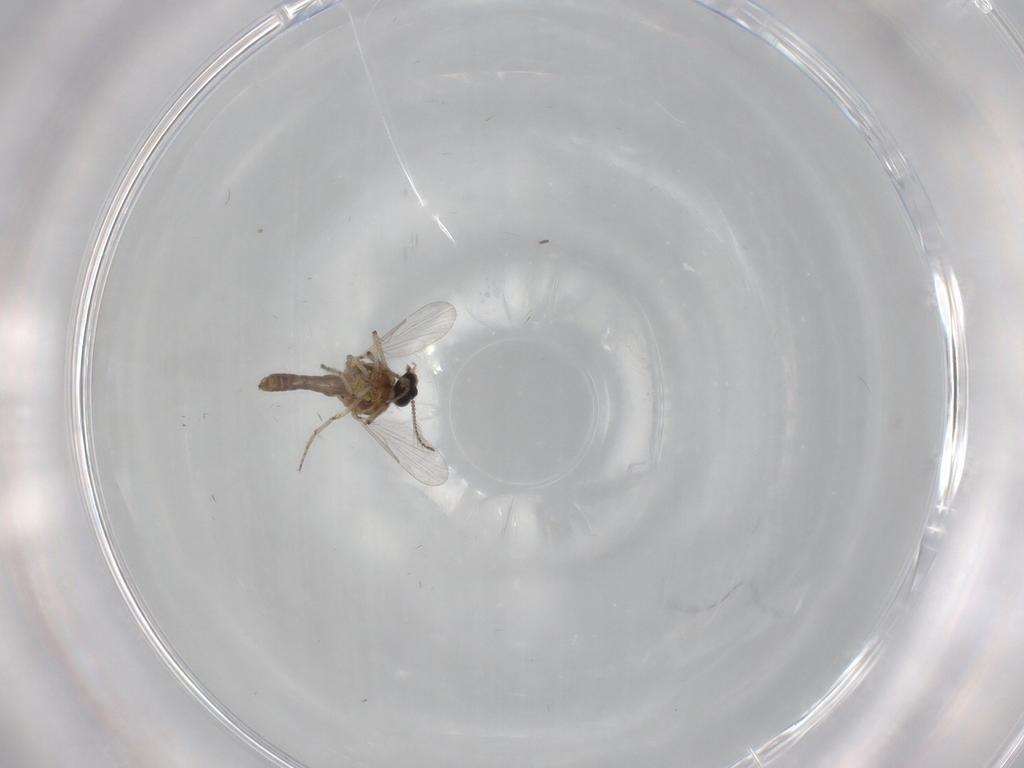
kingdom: Animalia
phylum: Arthropoda
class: Insecta
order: Diptera
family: Ceratopogonidae
